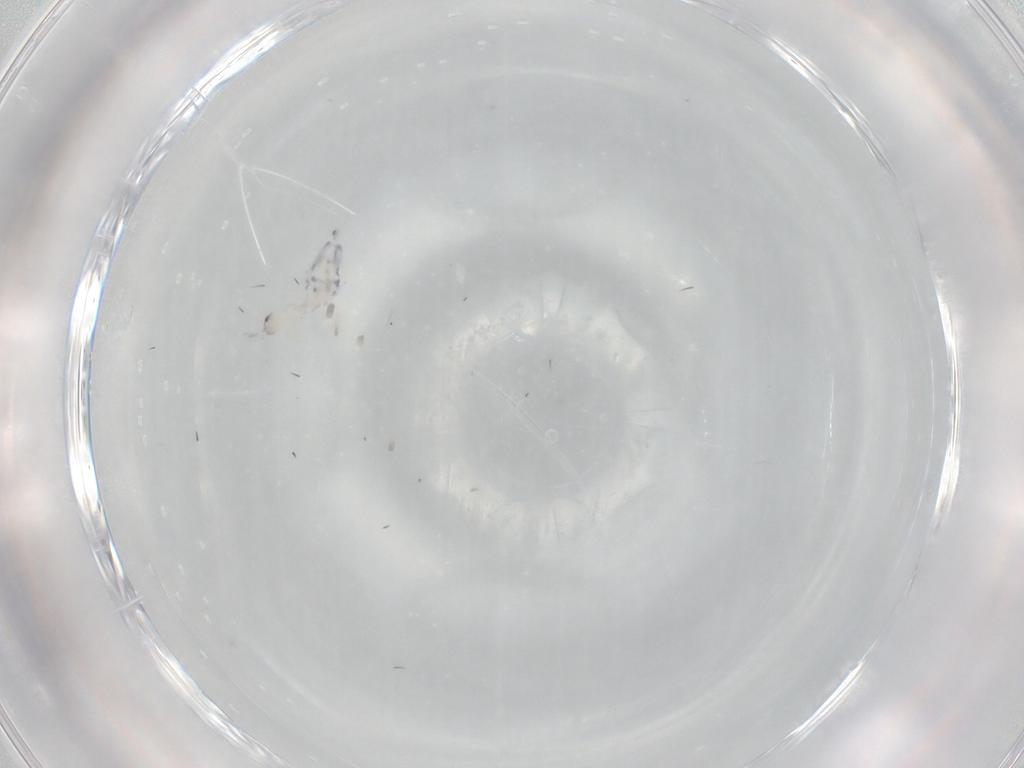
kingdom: Animalia
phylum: Arthropoda
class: Collembola
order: Entomobryomorpha
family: Entomobryidae
